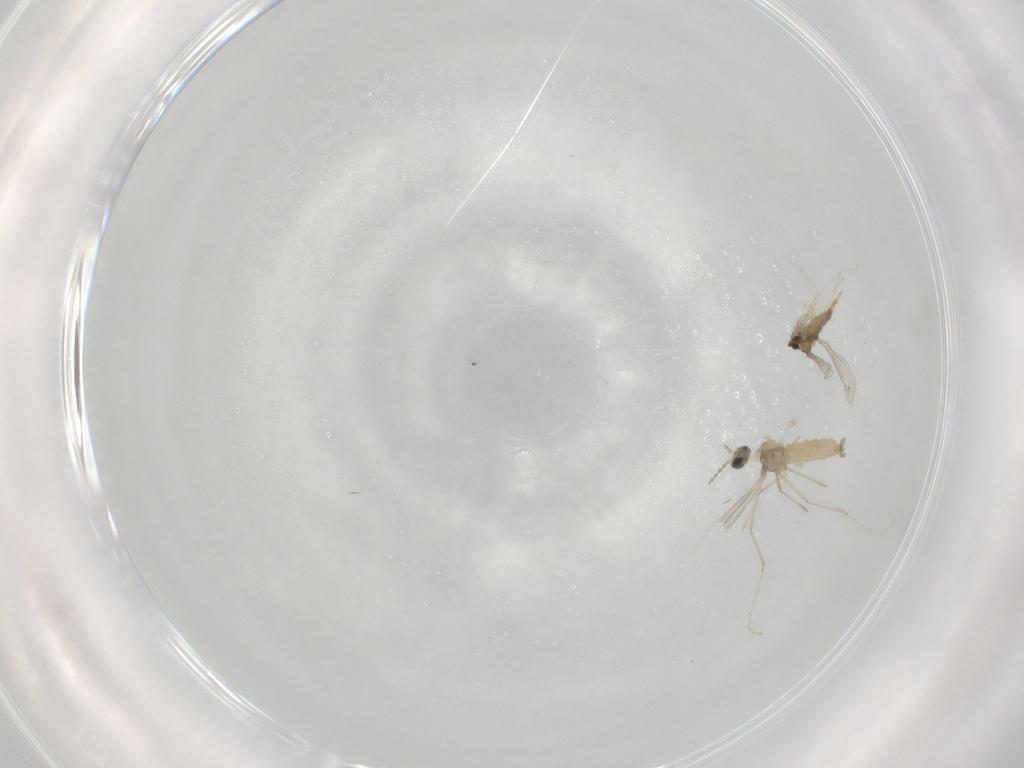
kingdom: Animalia
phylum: Arthropoda
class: Insecta
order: Diptera
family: Cecidomyiidae
